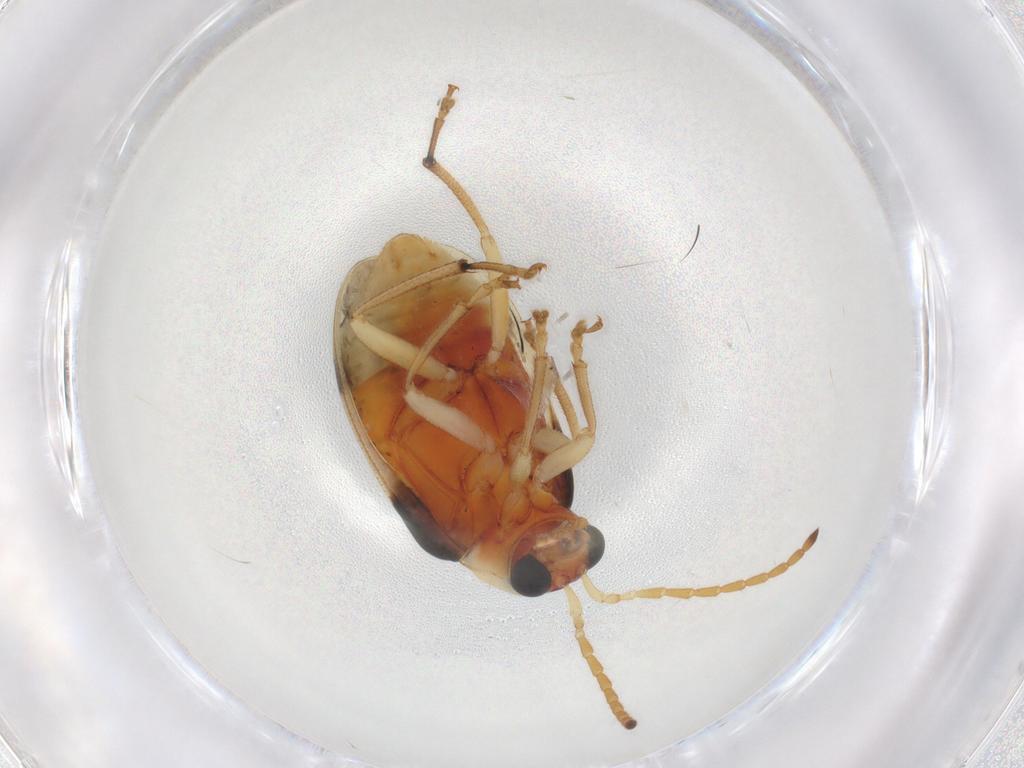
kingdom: Animalia
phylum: Arthropoda
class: Insecta
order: Coleoptera
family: Chrysomelidae
